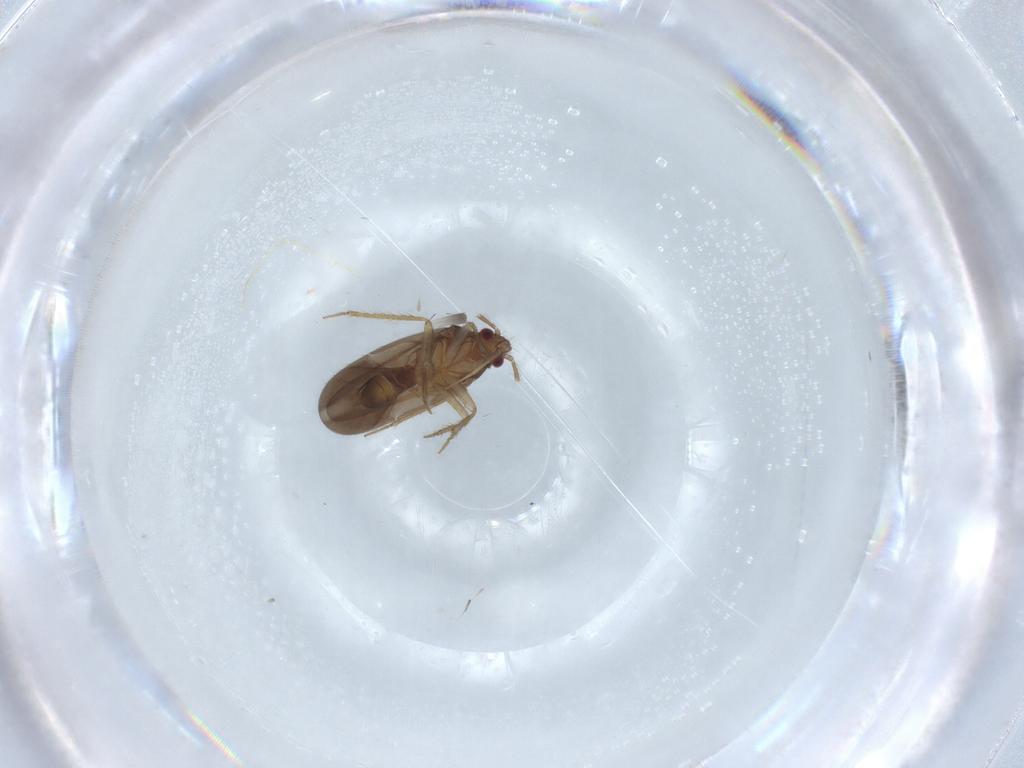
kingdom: Animalia
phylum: Arthropoda
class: Insecta
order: Hemiptera
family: Ceratocombidae
